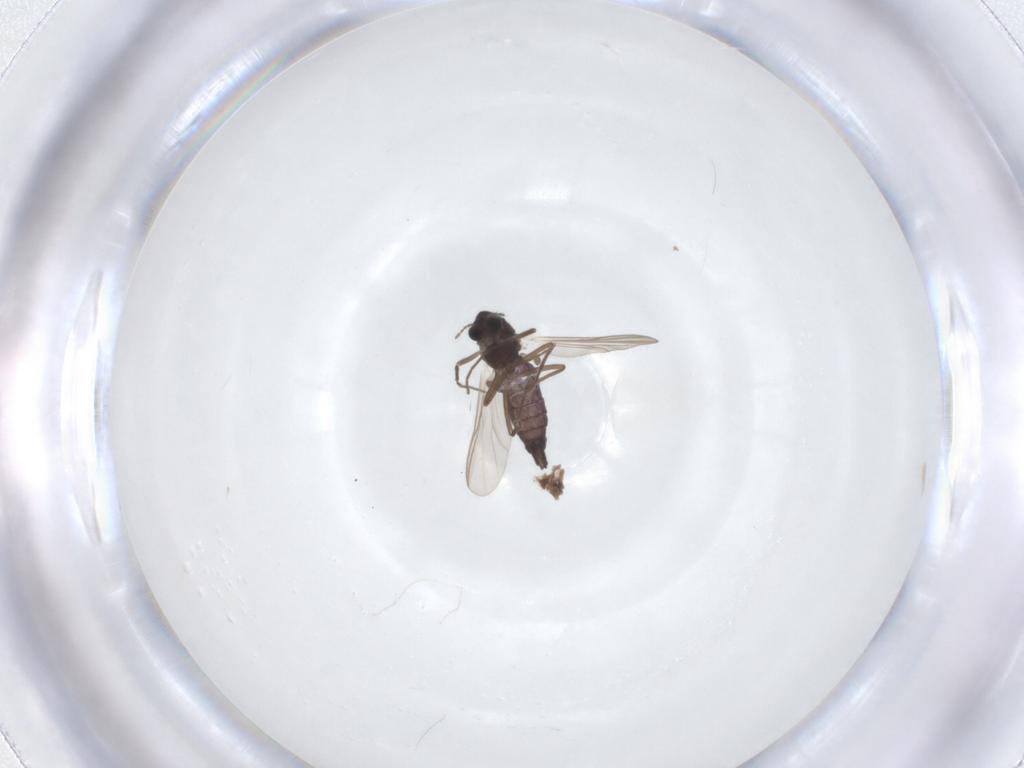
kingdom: Animalia
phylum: Arthropoda
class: Insecta
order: Diptera
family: Chironomidae
